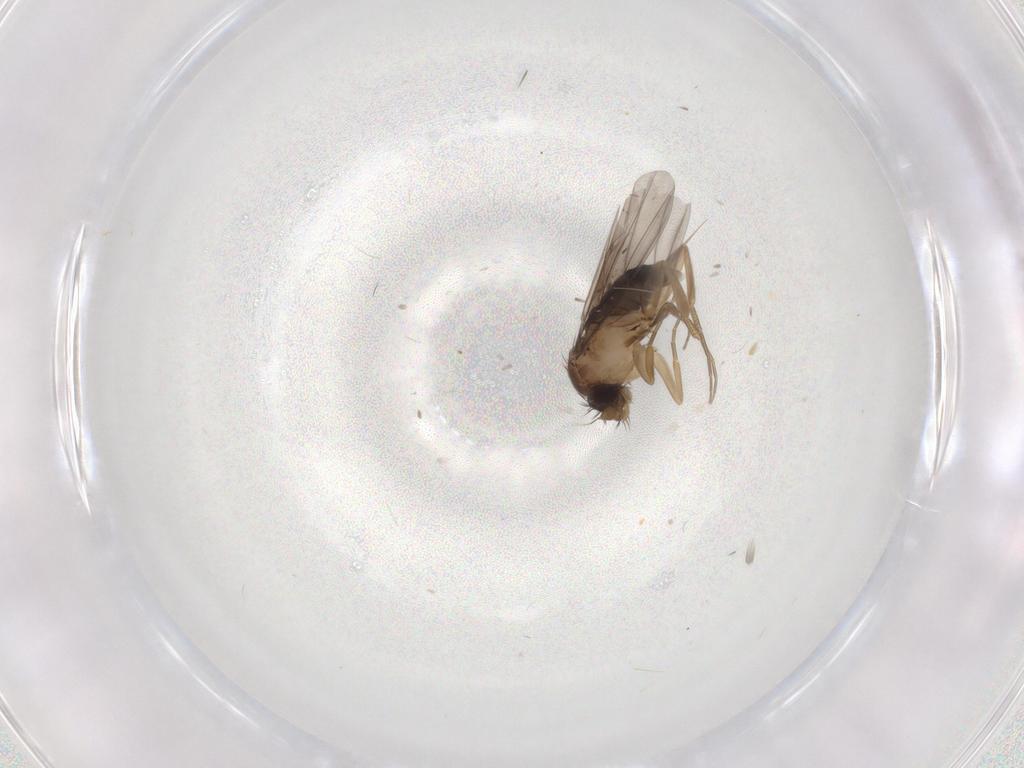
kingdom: Animalia
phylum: Arthropoda
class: Insecta
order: Diptera
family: Phoridae
